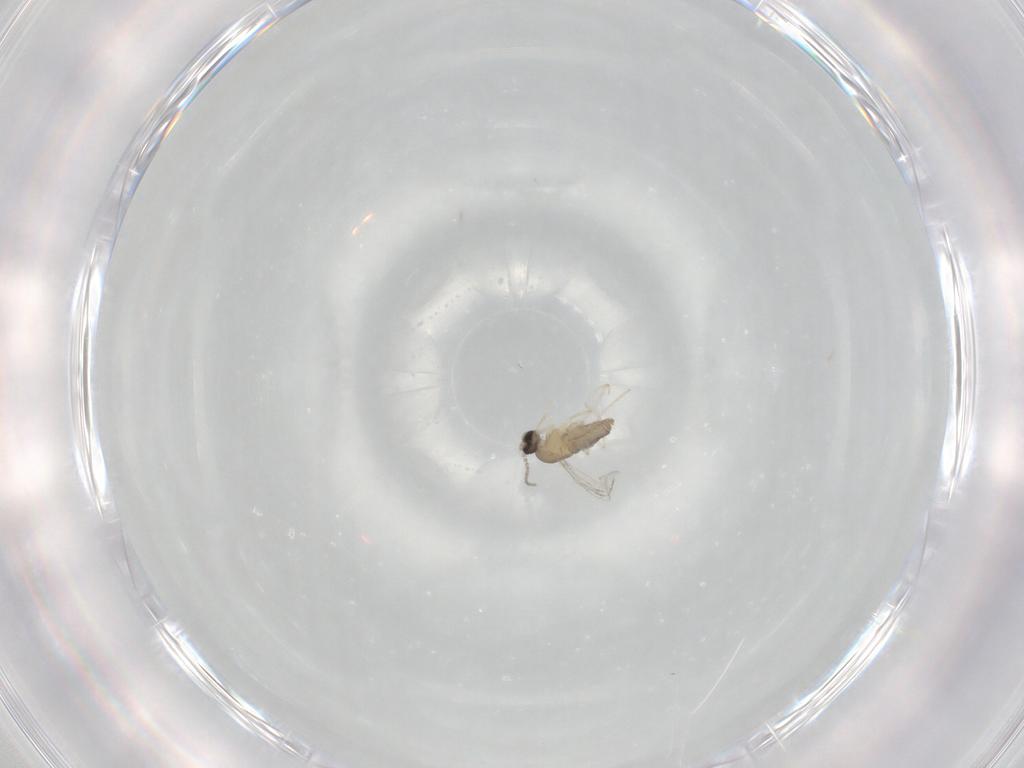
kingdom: Animalia
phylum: Arthropoda
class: Insecta
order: Diptera
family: Cecidomyiidae
